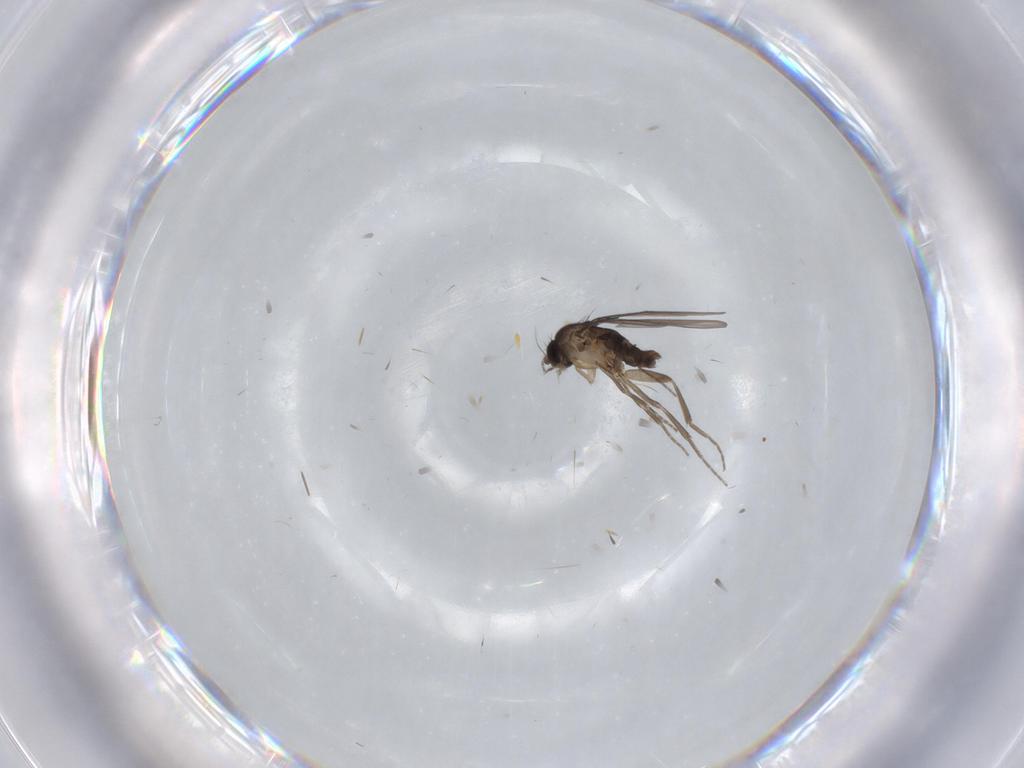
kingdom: Animalia
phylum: Arthropoda
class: Insecta
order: Diptera
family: Phoridae
